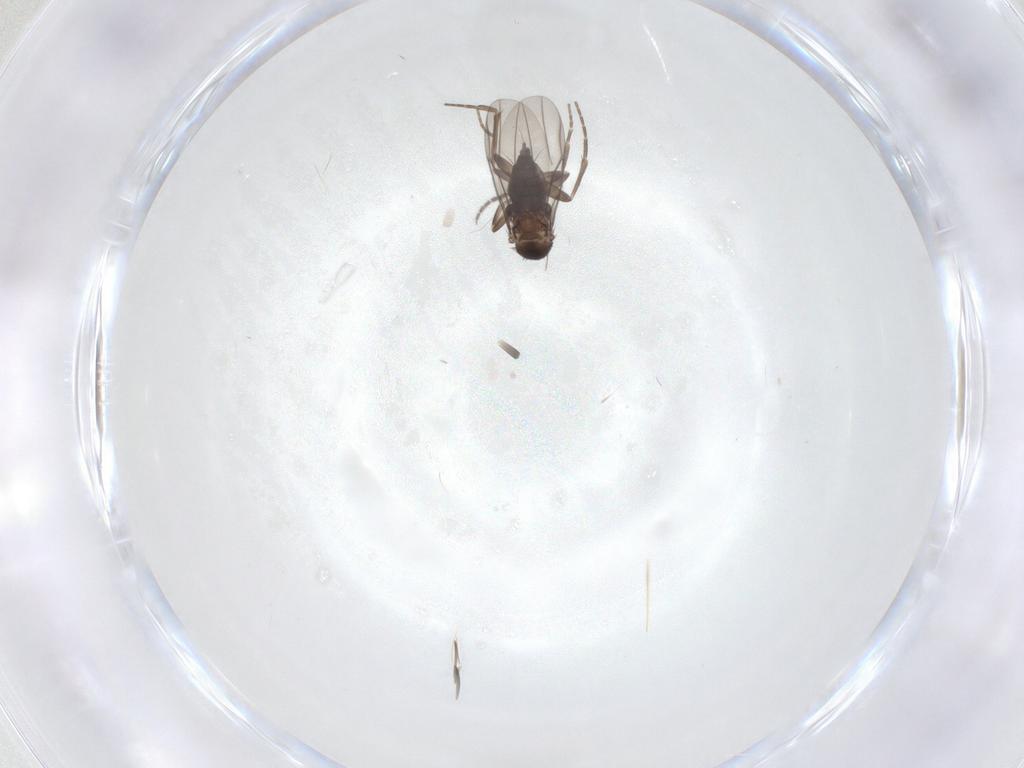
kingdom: Animalia
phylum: Arthropoda
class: Insecta
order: Diptera
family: Sciaridae
